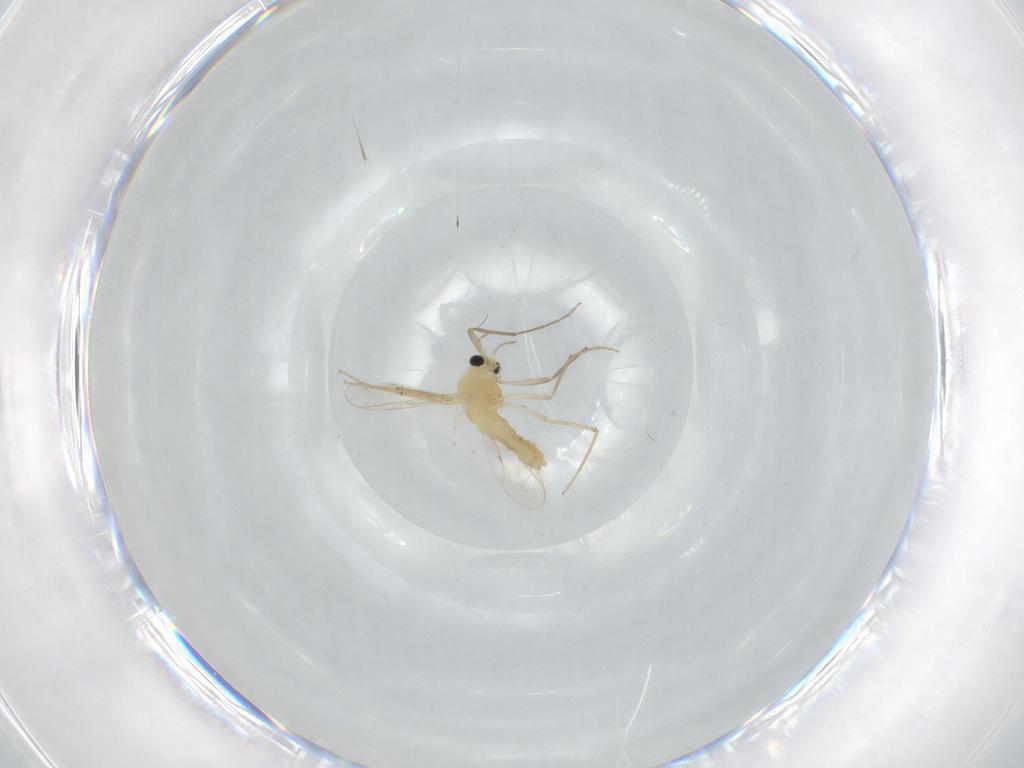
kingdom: Animalia
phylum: Arthropoda
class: Insecta
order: Diptera
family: Chironomidae
